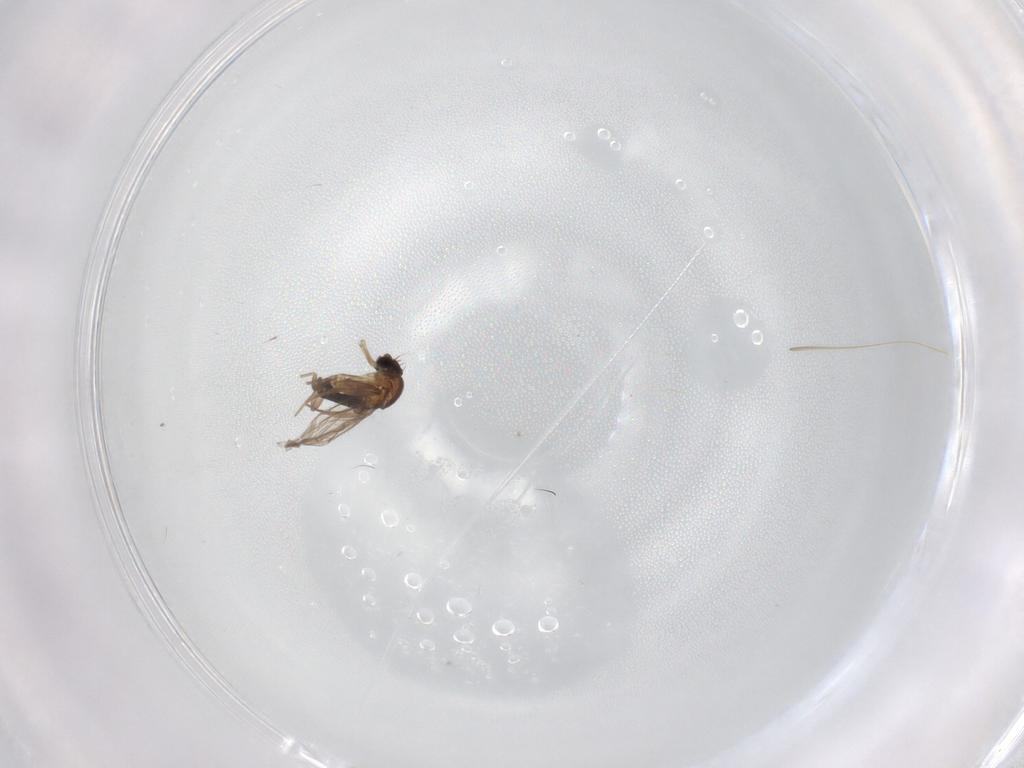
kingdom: Animalia
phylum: Arthropoda
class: Insecta
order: Diptera
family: Phoridae
